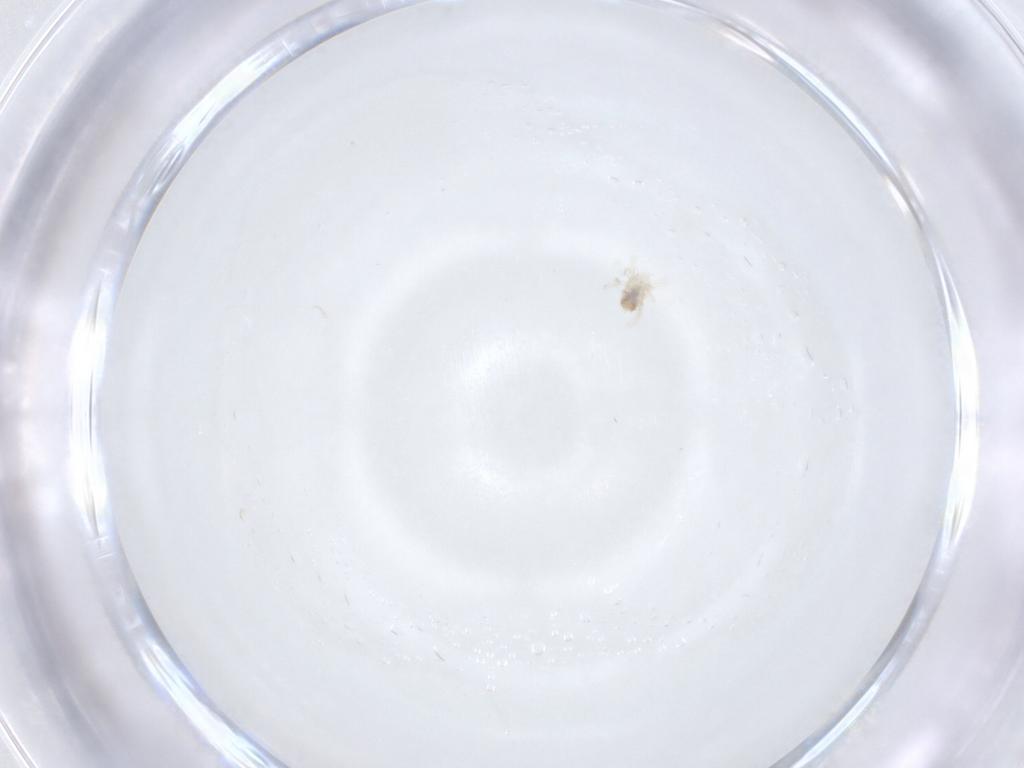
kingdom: Animalia
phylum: Arthropoda
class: Arachnida
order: Trombidiformes
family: Anystidae
